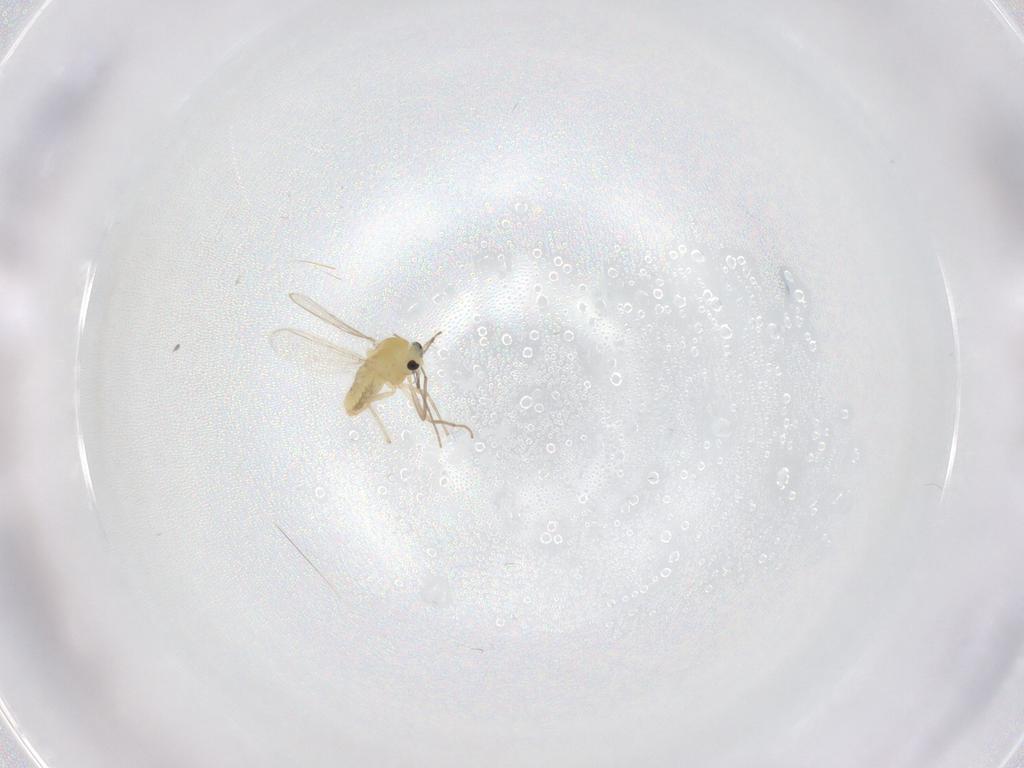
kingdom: Animalia
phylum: Arthropoda
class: Insecta
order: Diptera
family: Chironomidae
